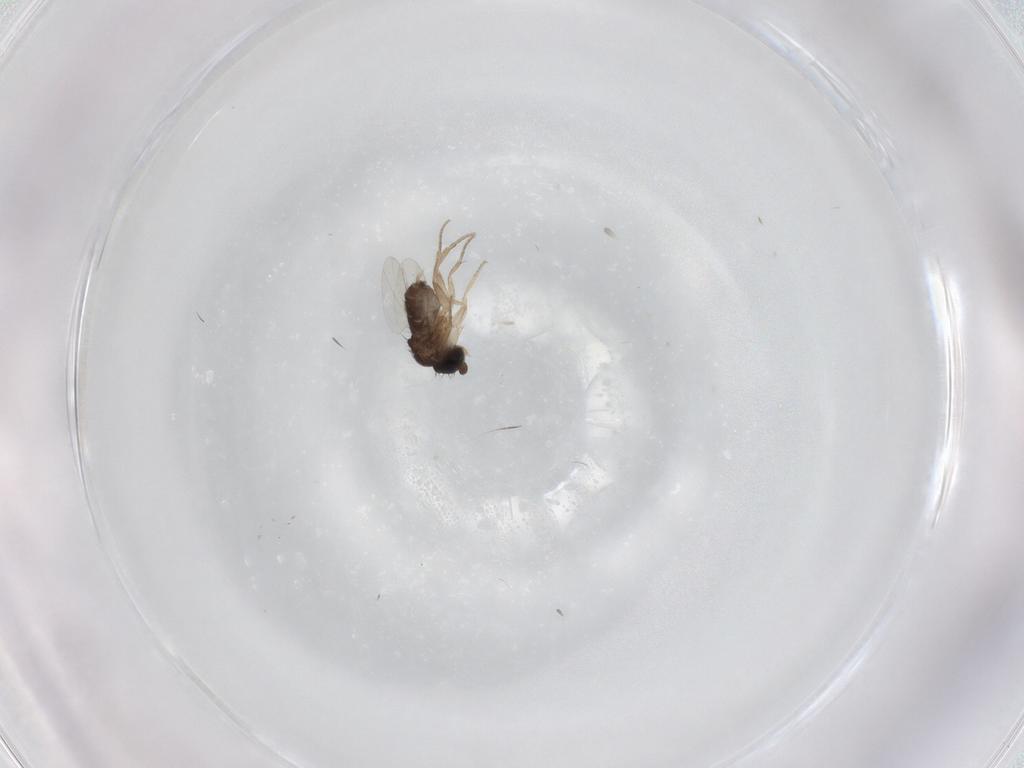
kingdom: Animalia
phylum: Arthropoda
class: Insecta
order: Diptera
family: Phoridae
